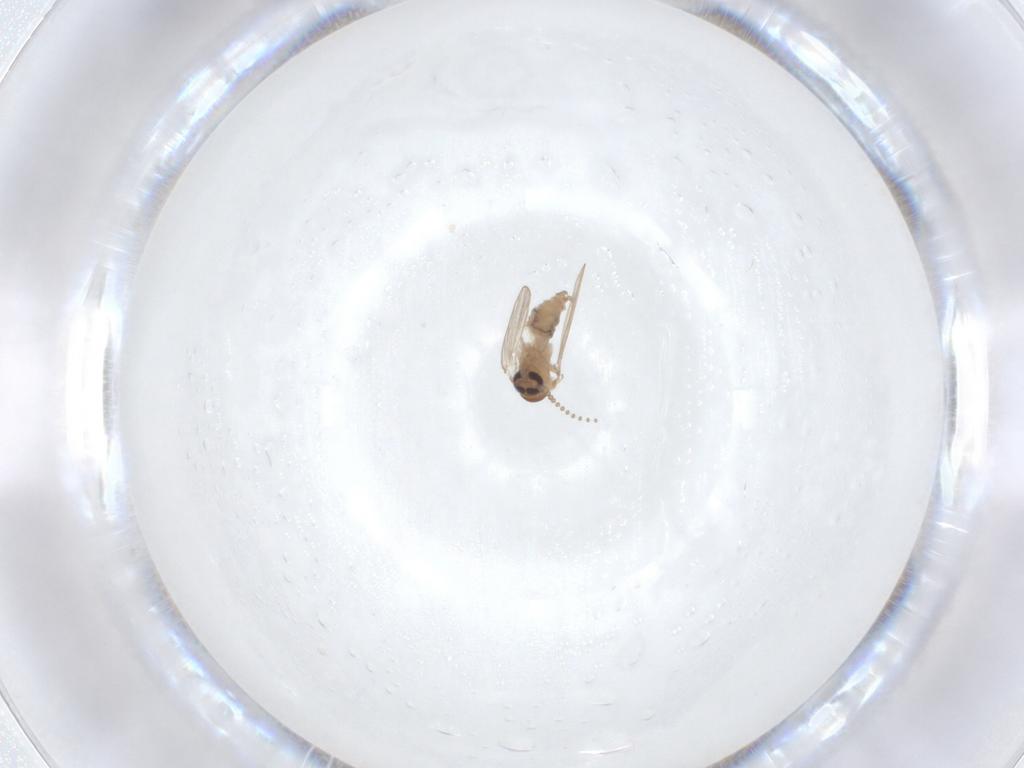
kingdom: Animalia
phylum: Arthropoda
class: Insecta
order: Diptera
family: Psychodidae
